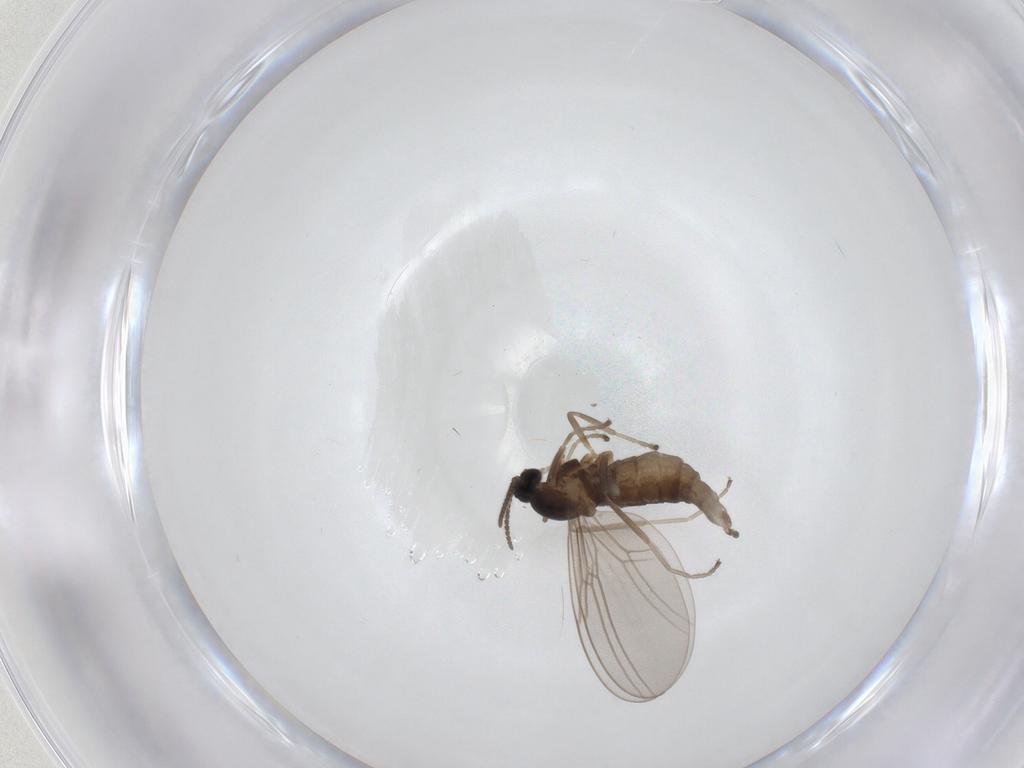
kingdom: Animalia
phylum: Arthropoda
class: Insecta
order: Diptera
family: Cecidomyiidae
